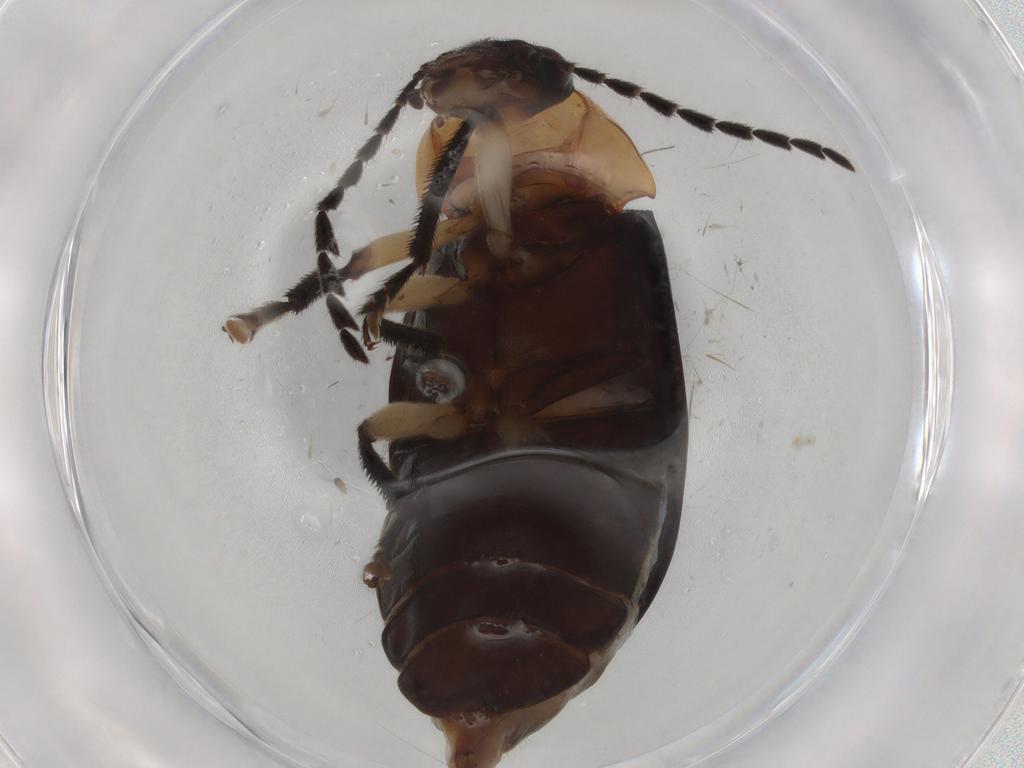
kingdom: Animalia
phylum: Arthropoda
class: Insecta
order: Coleoptera
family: Ptilodactylidae
